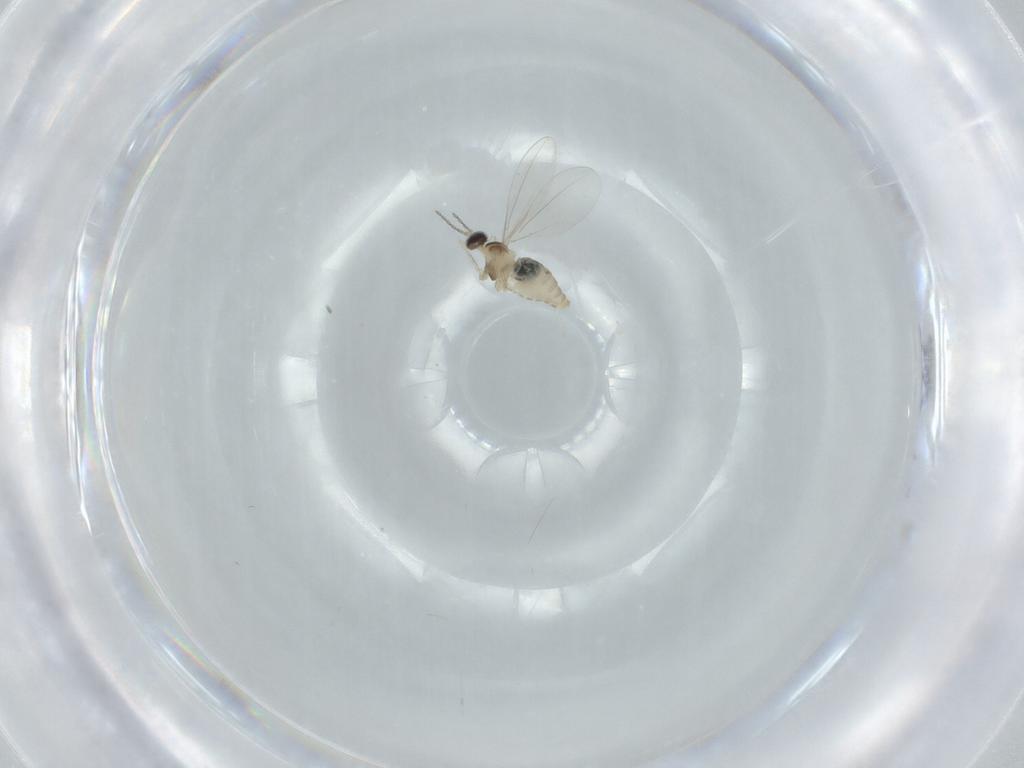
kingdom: Animalia
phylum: Arthropoda
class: Insecta
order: Diptera
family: Cecidomyiidae
